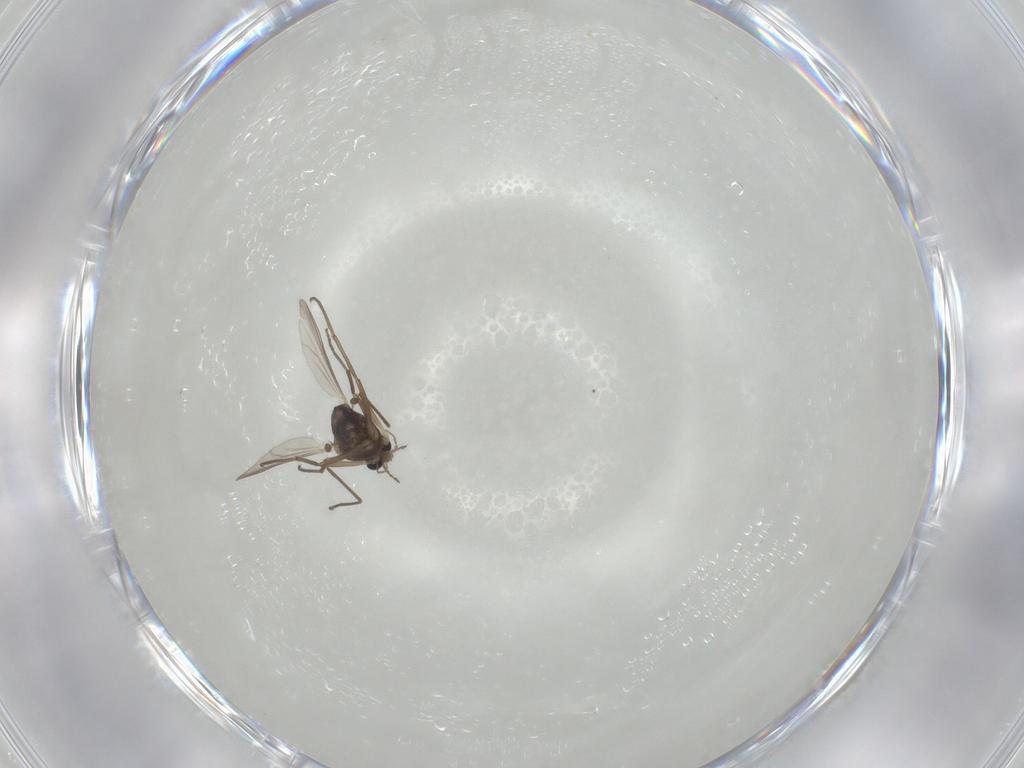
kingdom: Animalia
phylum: Arthropoda
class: Insecta
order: Diptera
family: Chironomidae
